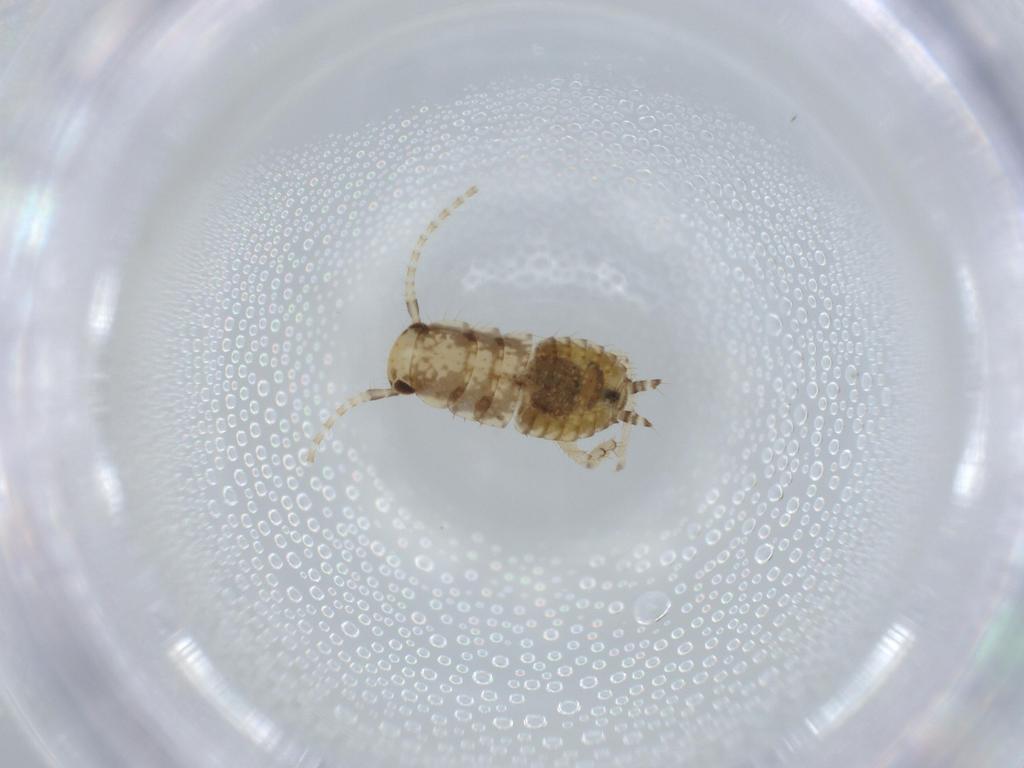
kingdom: Animalia
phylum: Arthropoda
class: Insecta
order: Blattodea
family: Ectobiidae
